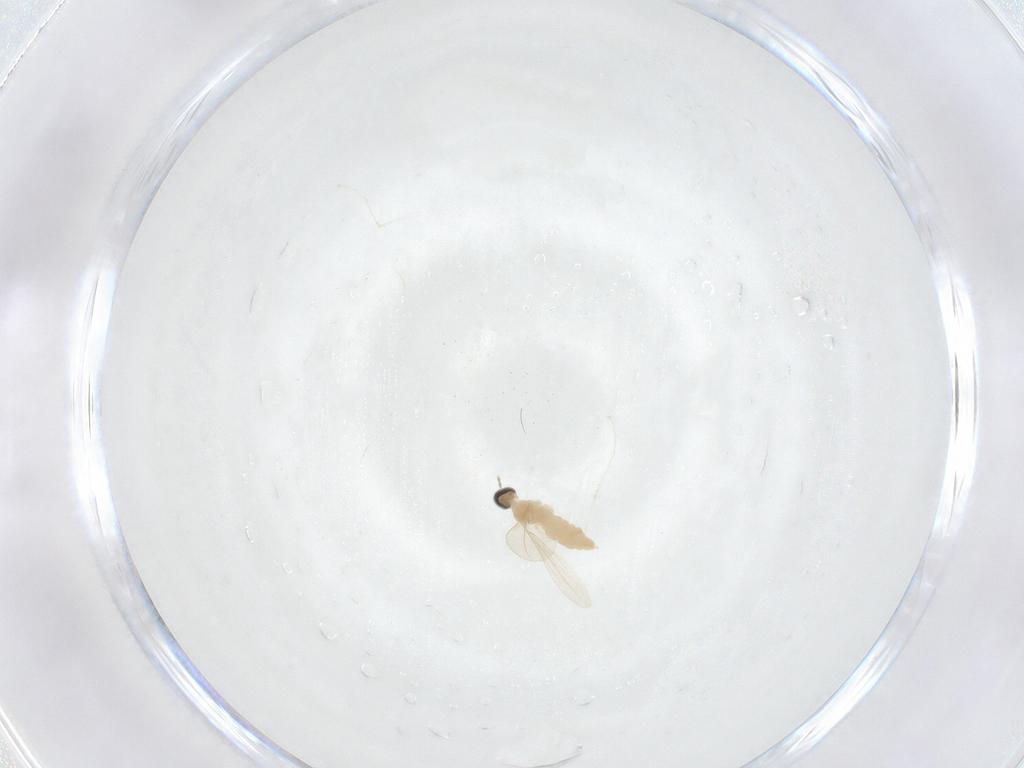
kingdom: Animalia
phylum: Arthropoda
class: Insecta
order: Diptera
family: Cecidomyiidae
